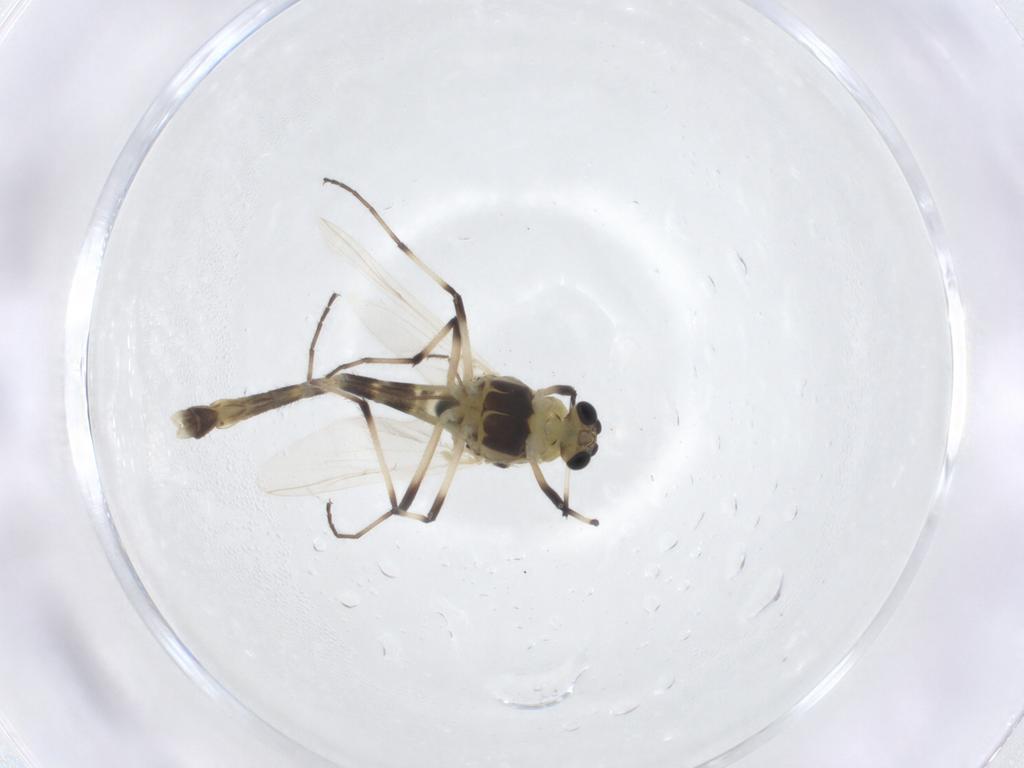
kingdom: Animalia
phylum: Arthropoda
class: Insecta
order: Diptera
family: Chironomidae
